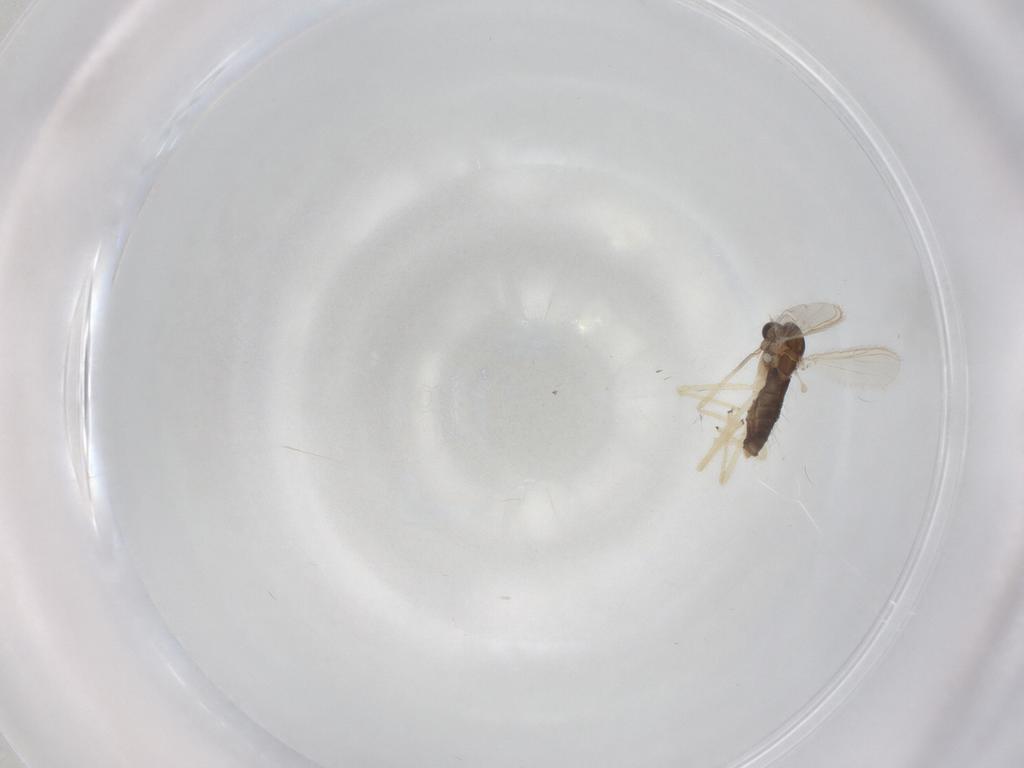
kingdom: Animalia
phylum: Arthropoda
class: Insecta
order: Diptera
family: Chironomidae
